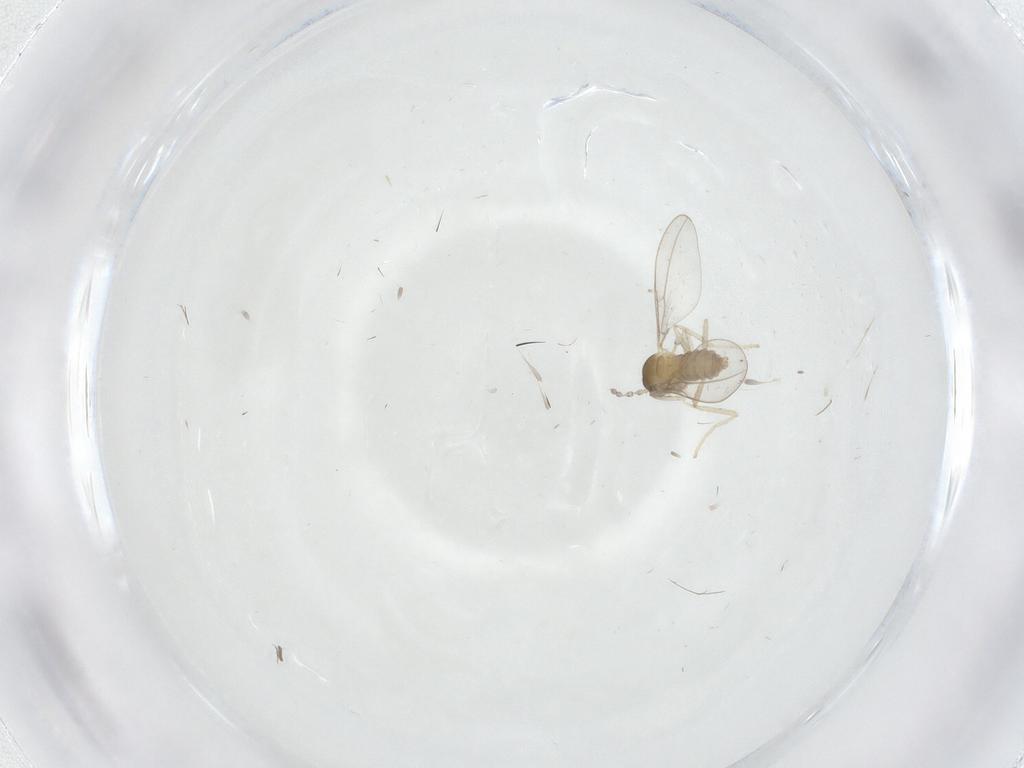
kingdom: Animalia
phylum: Arthropoda
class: Insecta
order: Diptera
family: Cecidomyiidae
